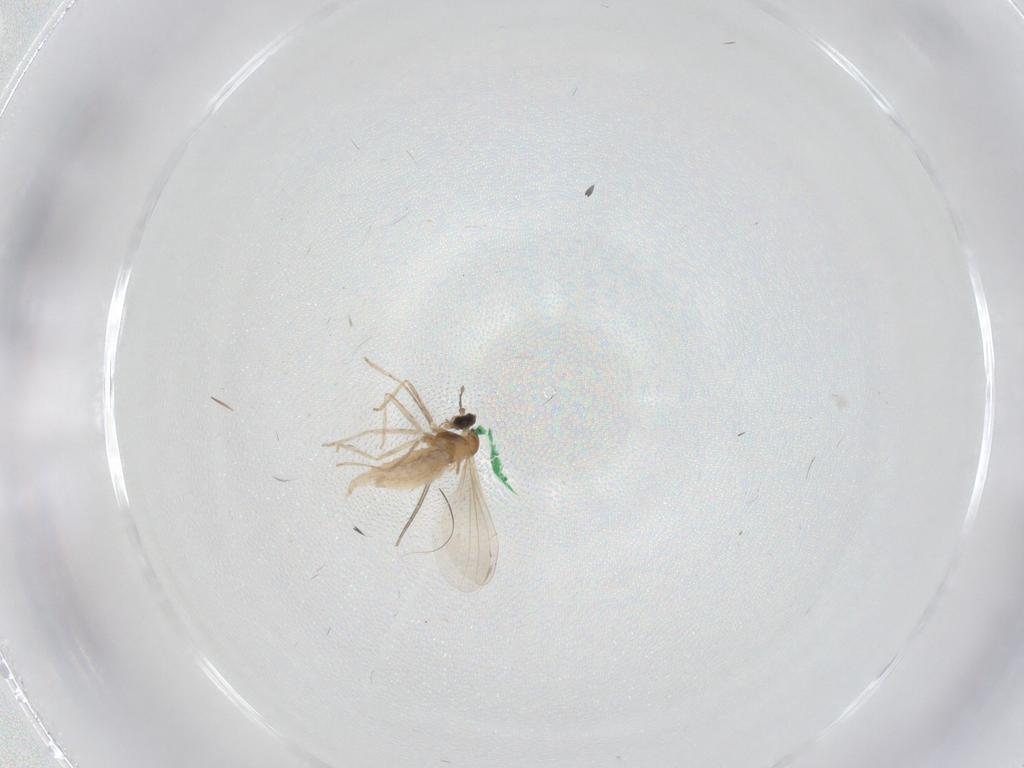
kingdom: Animalia
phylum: Arthropoda
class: Insecta
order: Diptera
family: Cecidomyiidae
